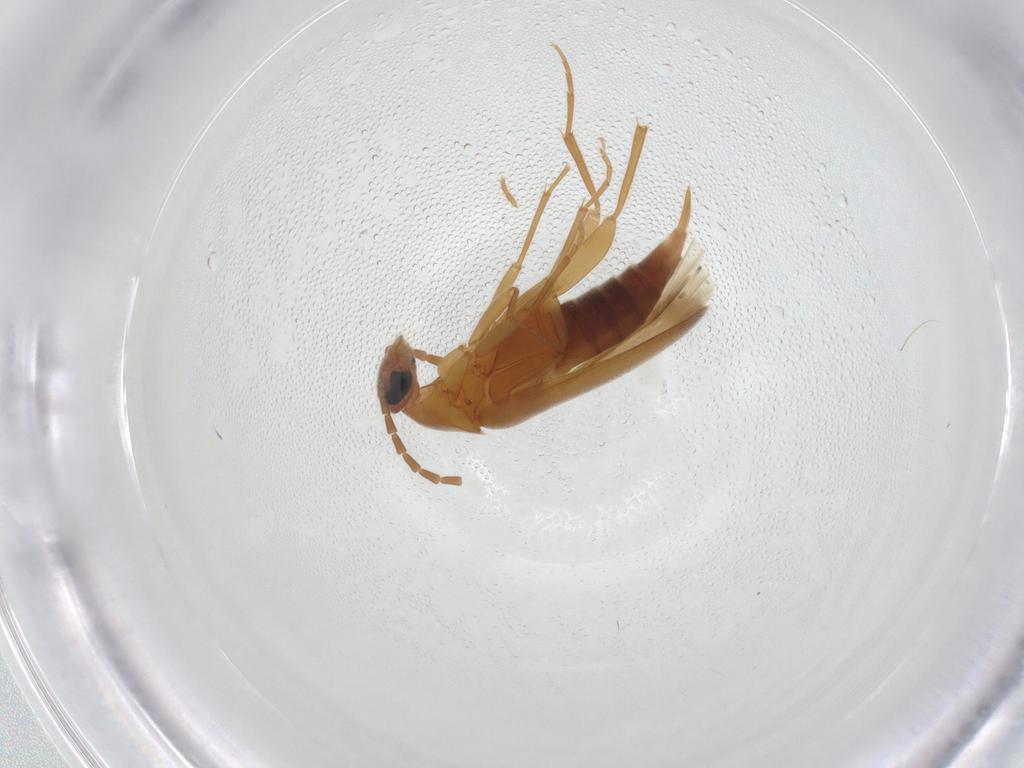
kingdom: Animalia
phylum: Arthropoda
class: Insecta
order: Coleoptera
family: Scraptiidae
